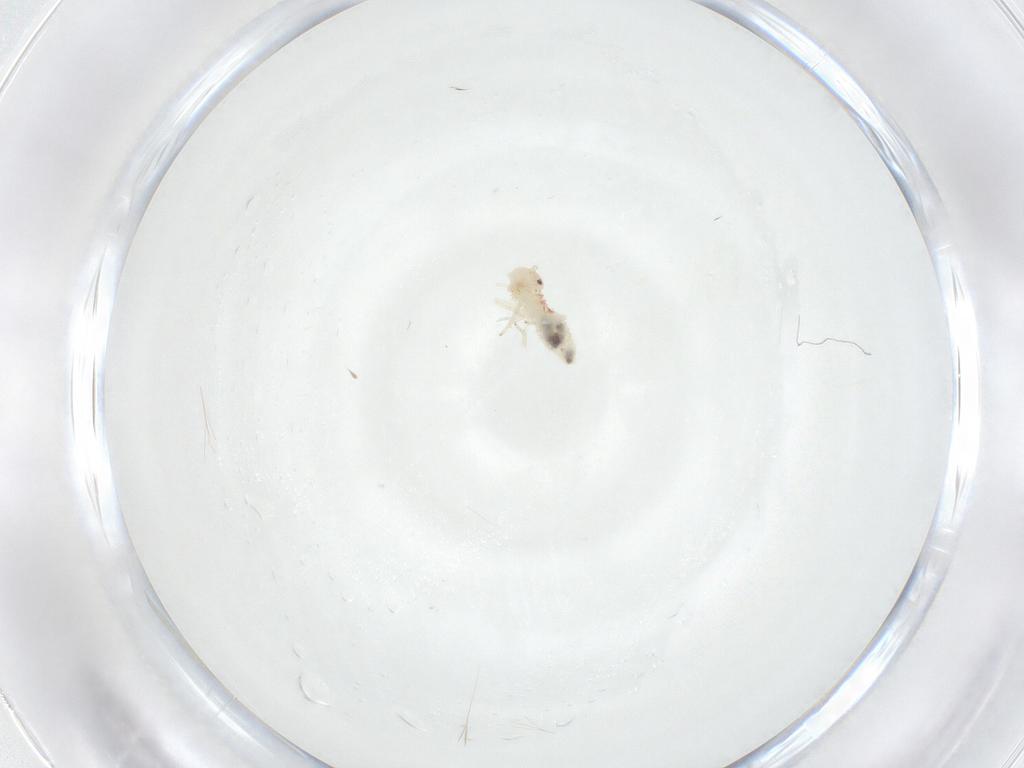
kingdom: Animalia
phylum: Arthropoda
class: Insecta
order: Psocodea
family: Amphipsocidae
